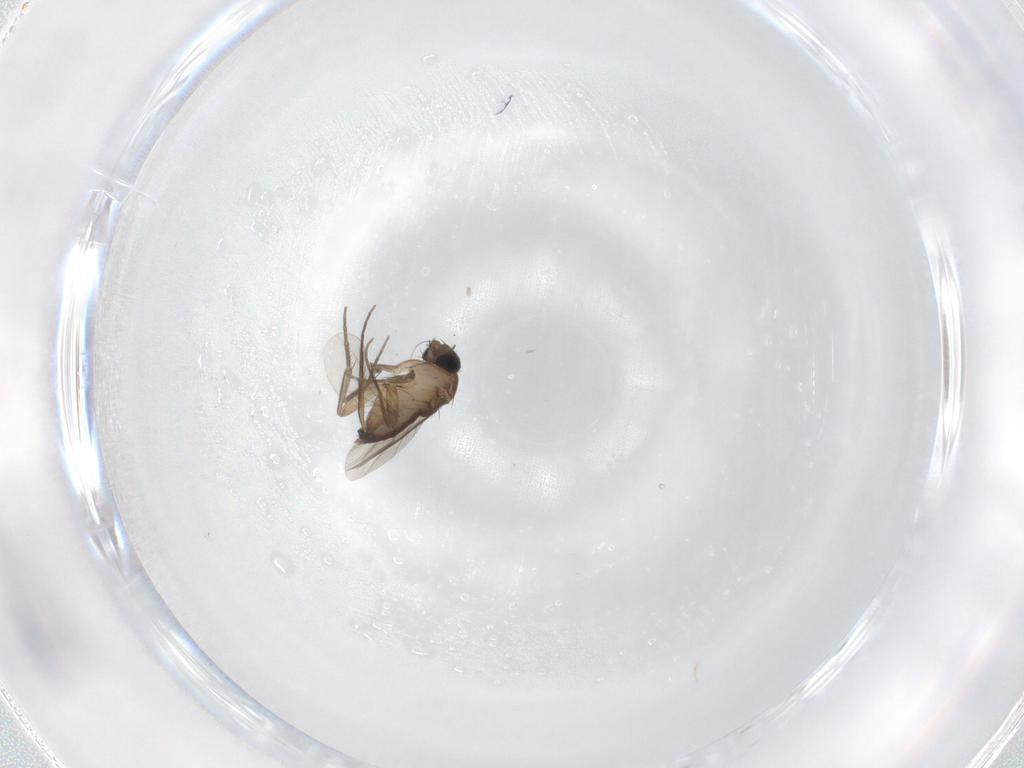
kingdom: Animalia
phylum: Arthropoda
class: Insecta
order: Diptera
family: Phoridae
